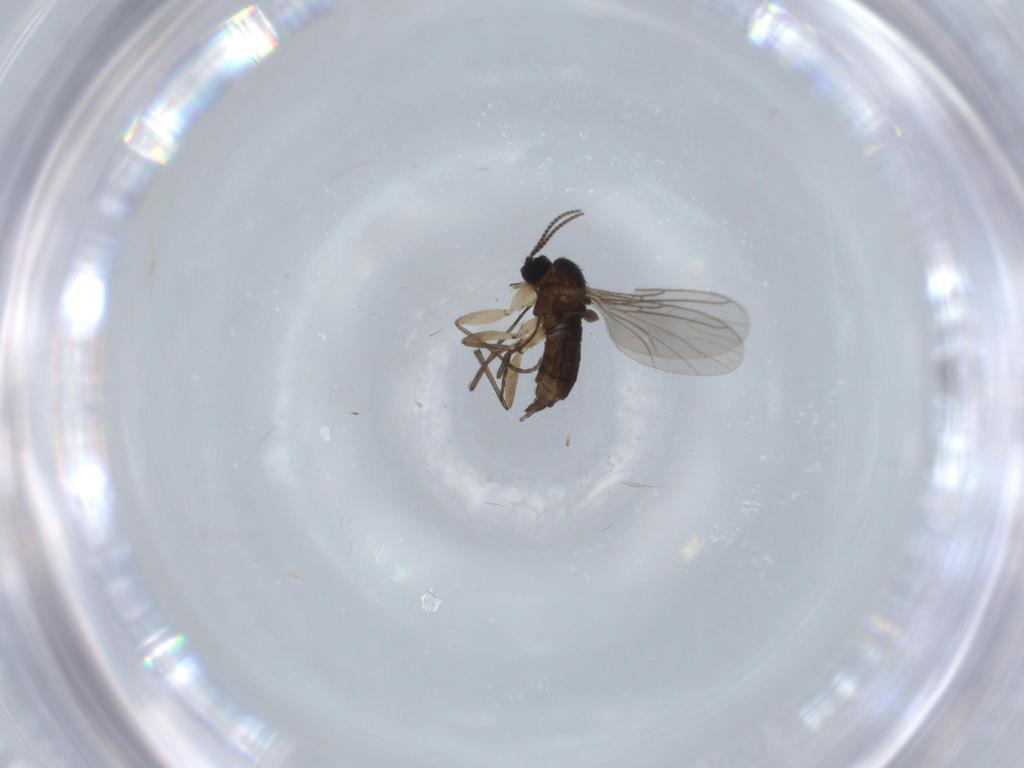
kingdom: Animalia
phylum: Arthropoda
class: Insecta
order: Diptera
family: Sciaridae
